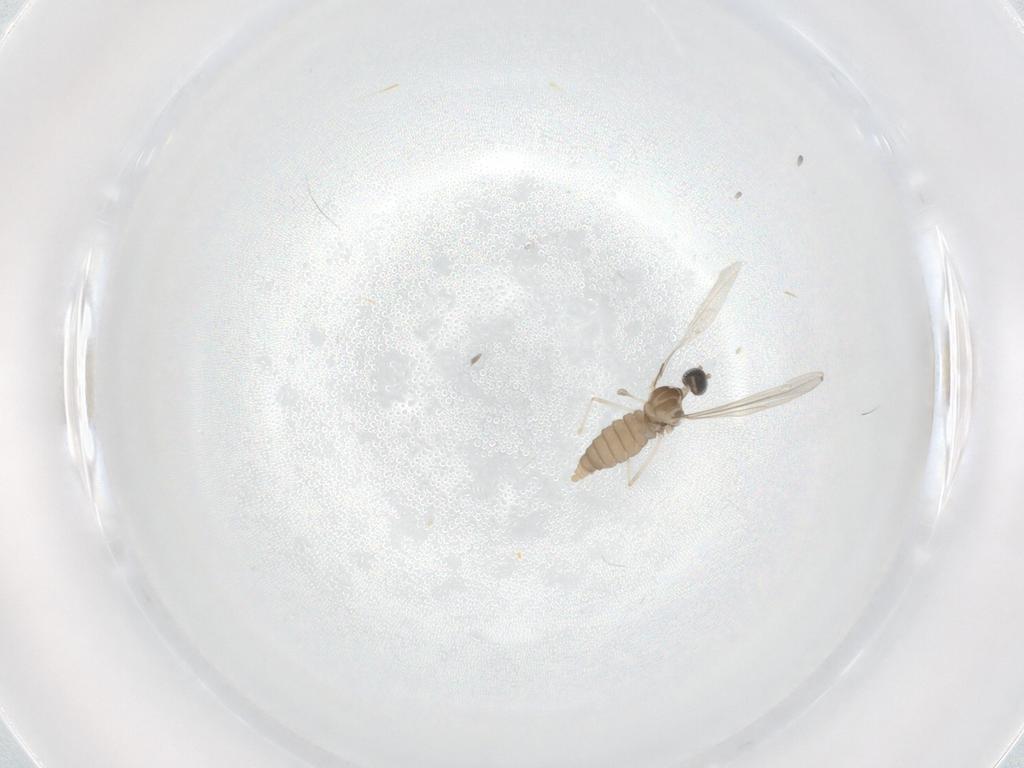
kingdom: Animalia
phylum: Arthropoda
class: Insecta
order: Diptera
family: Cecidomyiidae
